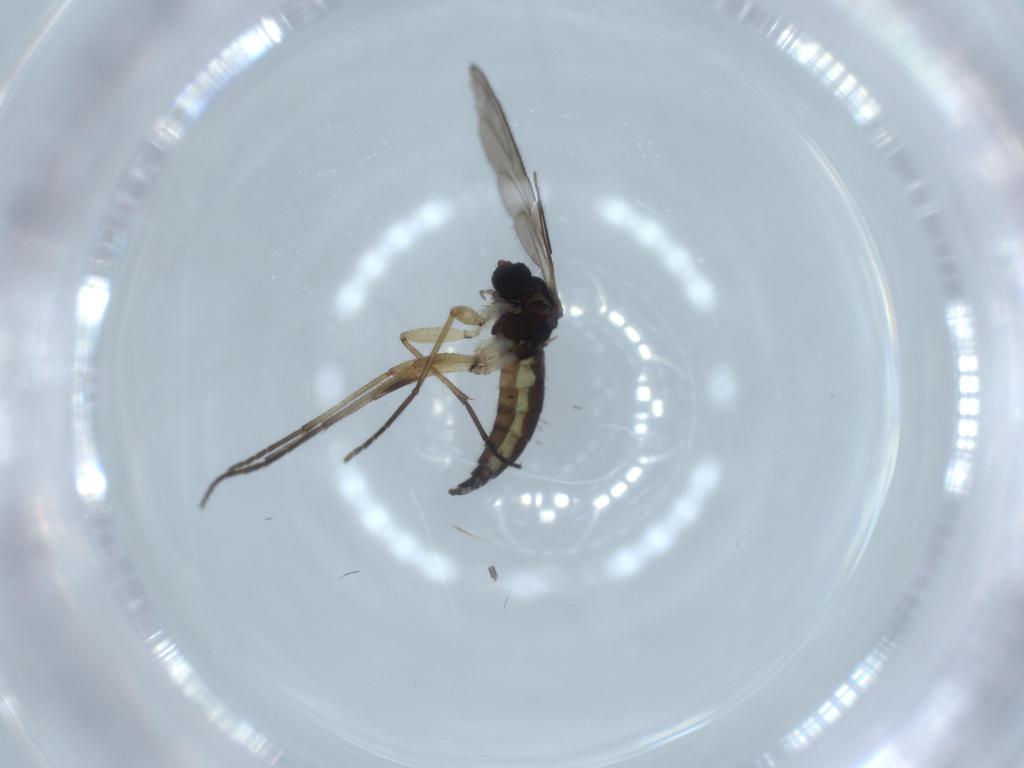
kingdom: Animalia
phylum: Arthropoda
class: Insecta
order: Diptera
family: Sciaridae
